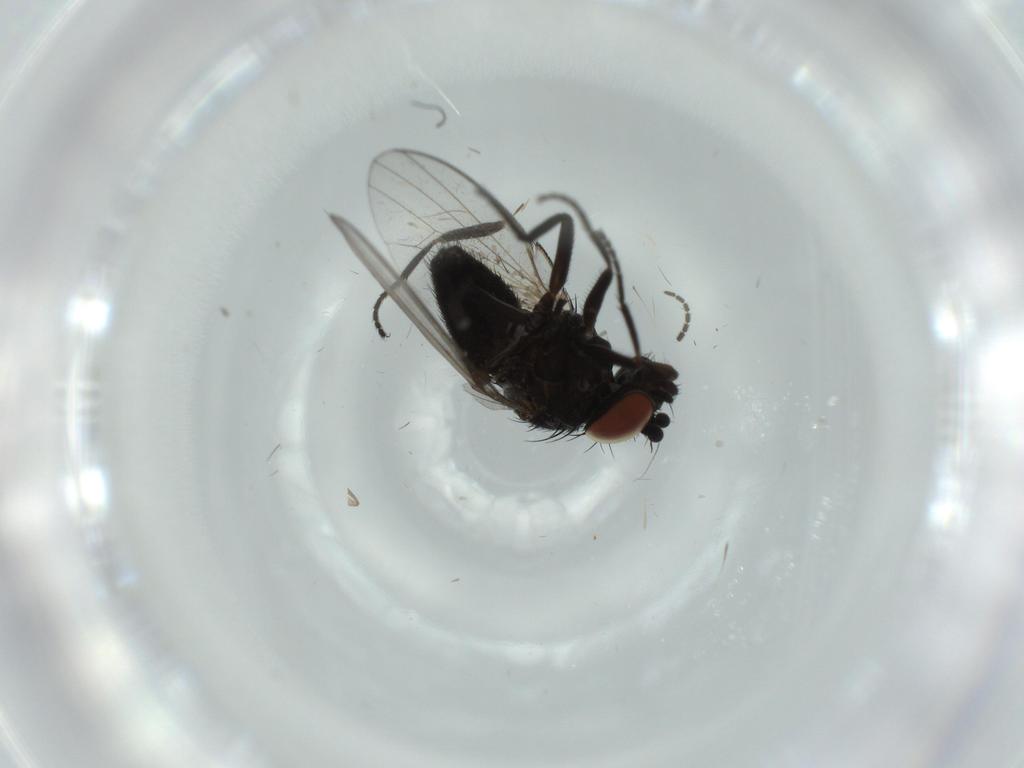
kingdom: Animalia
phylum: Arthropoda
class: Insecta
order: Diptera
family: Milichiidae
